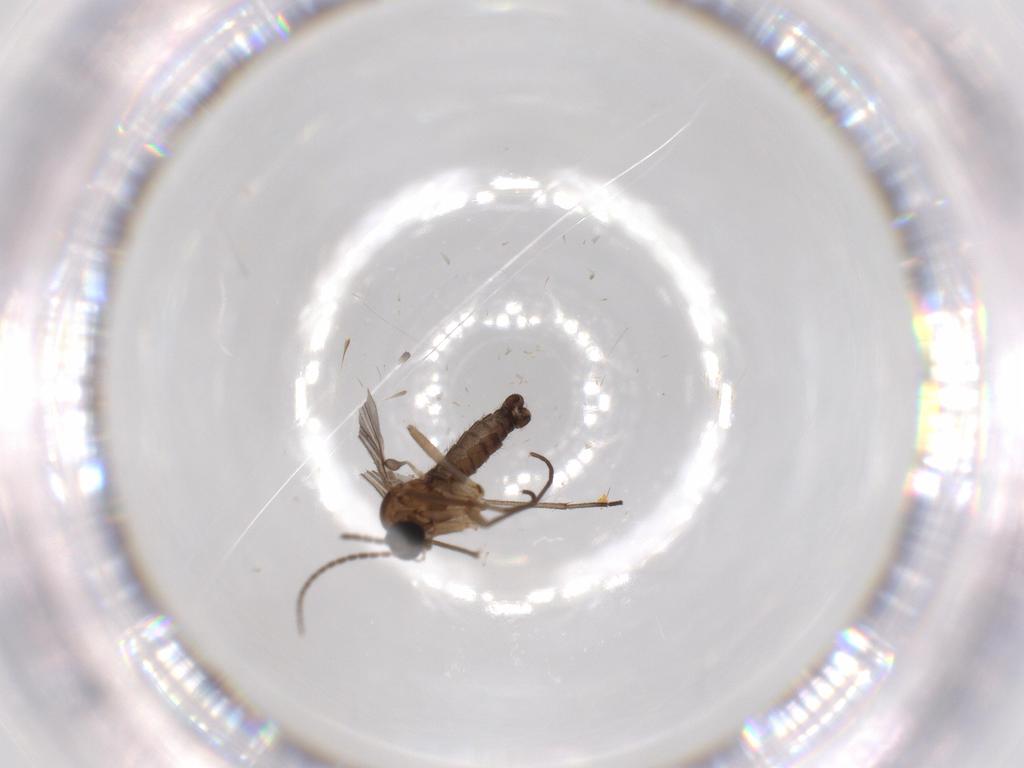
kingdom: Animalia
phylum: Arthropoda
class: Insecta
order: Diptera
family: Sciaridae
